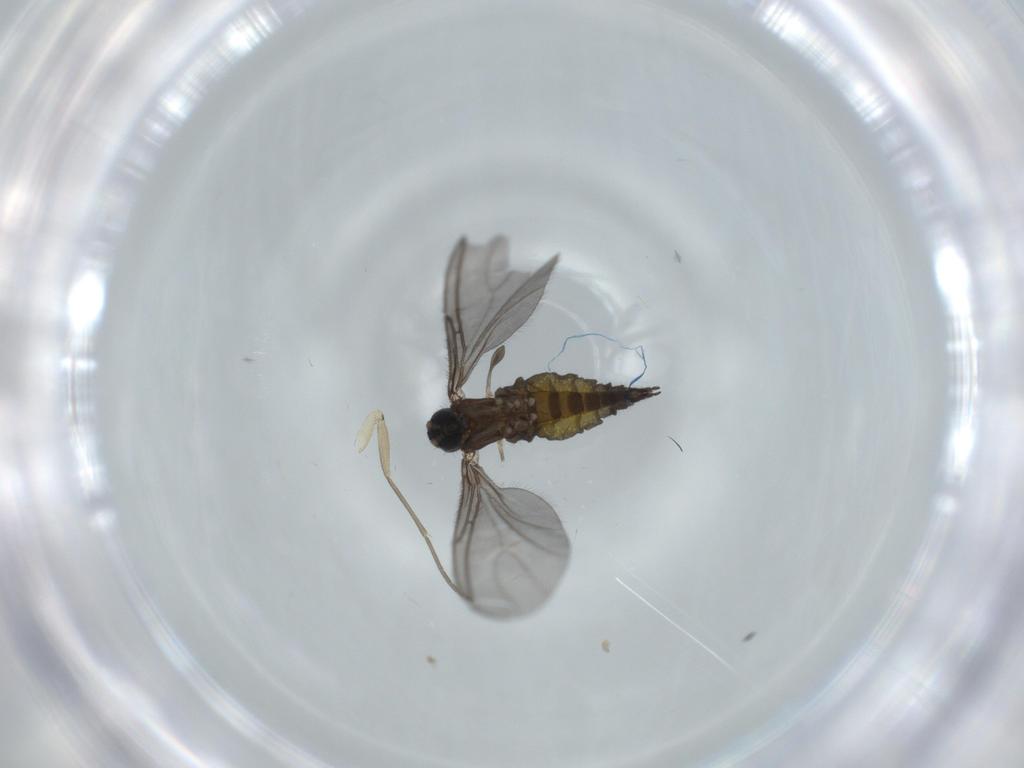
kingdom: Animalia
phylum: Arthropoda
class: Insecta
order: Diptera
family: Sciaridae
